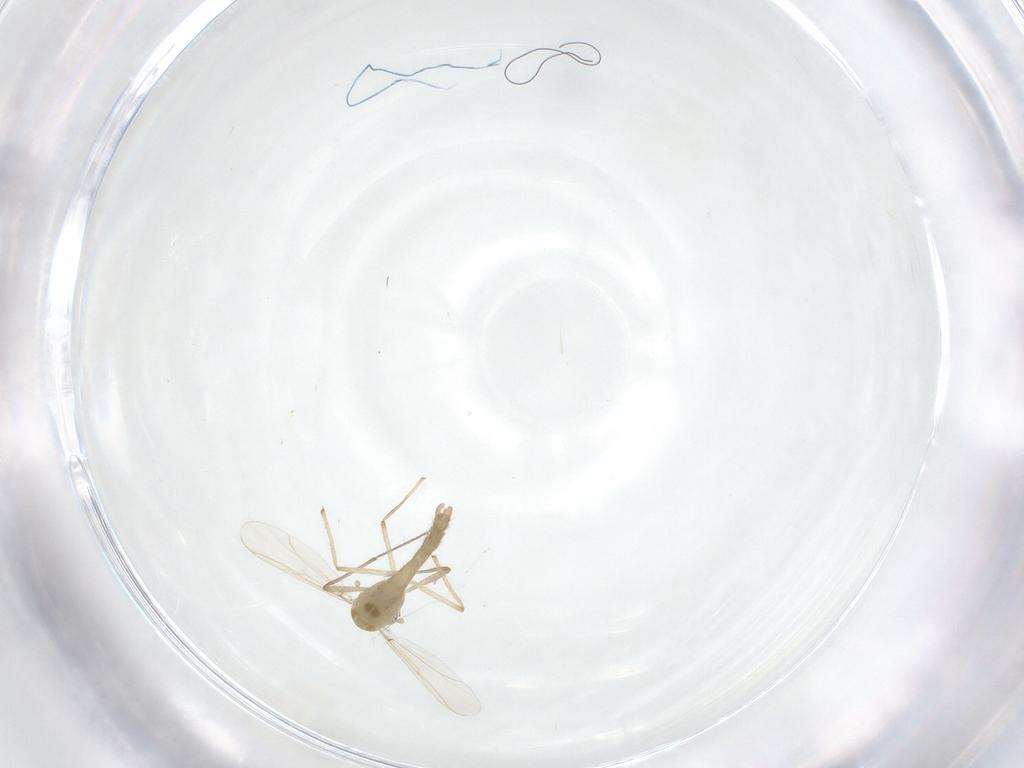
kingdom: Animalia
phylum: Arthropoda
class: Insecta
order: Diptera
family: Chironomidae
